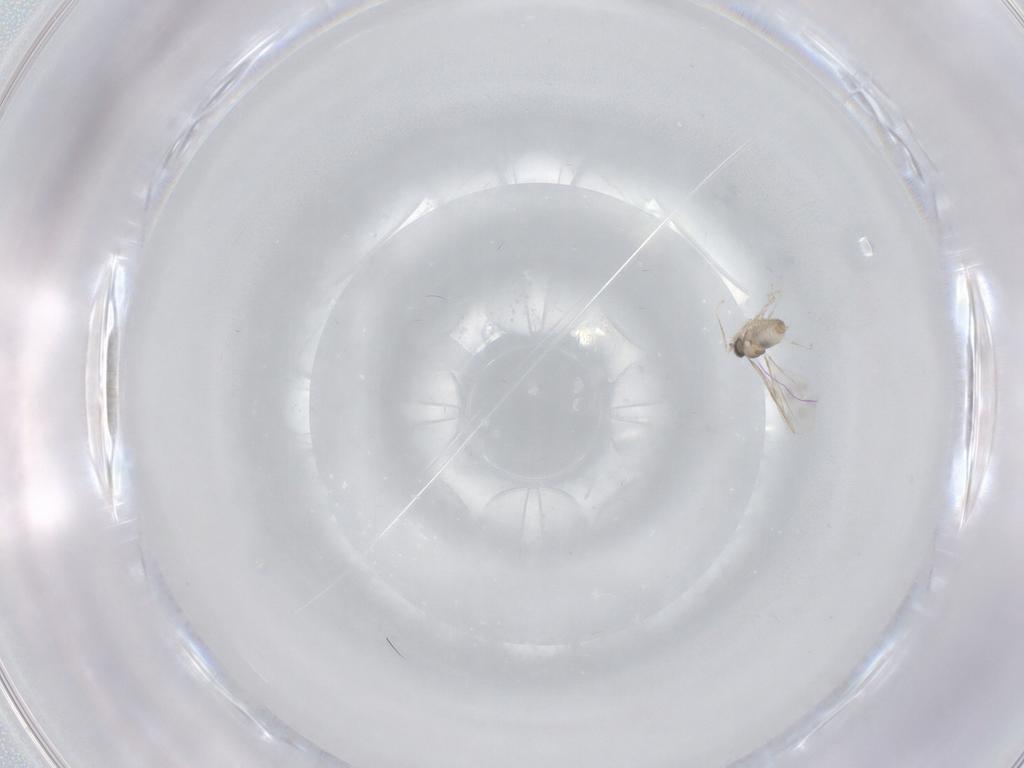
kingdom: Animalia
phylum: Arthropoda
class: Insecta
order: Diptera
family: Cecidomyiidae
